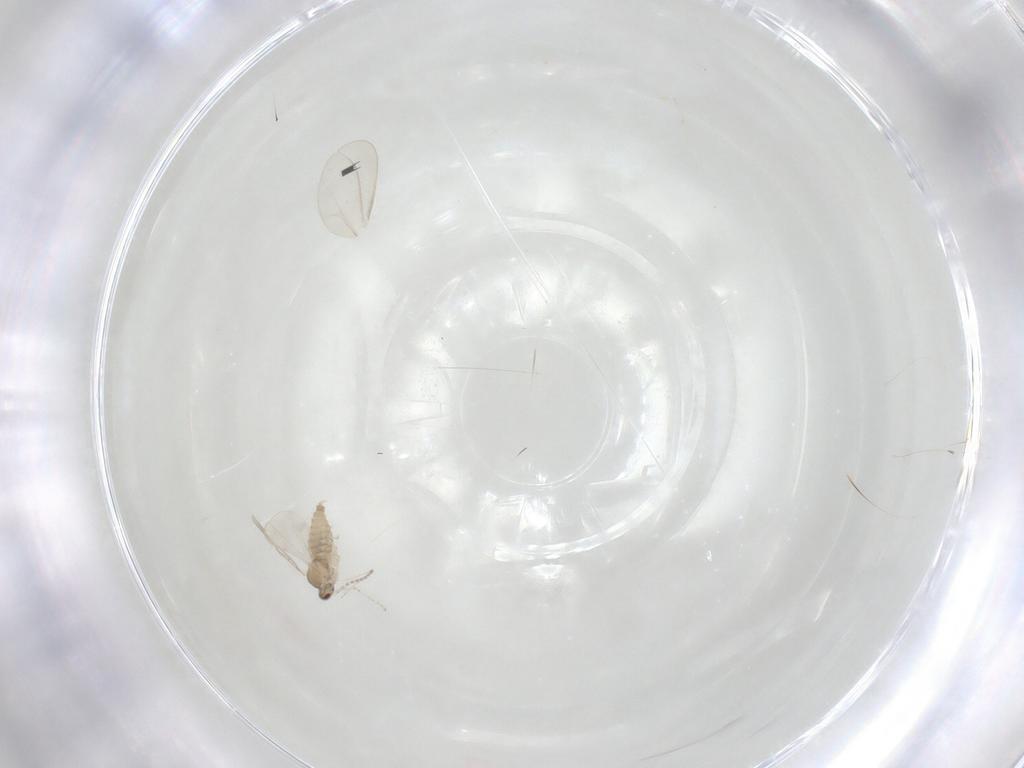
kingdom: Animalia
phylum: Arthropoda
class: Insecta
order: Diptera
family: Cecidomyiidae
